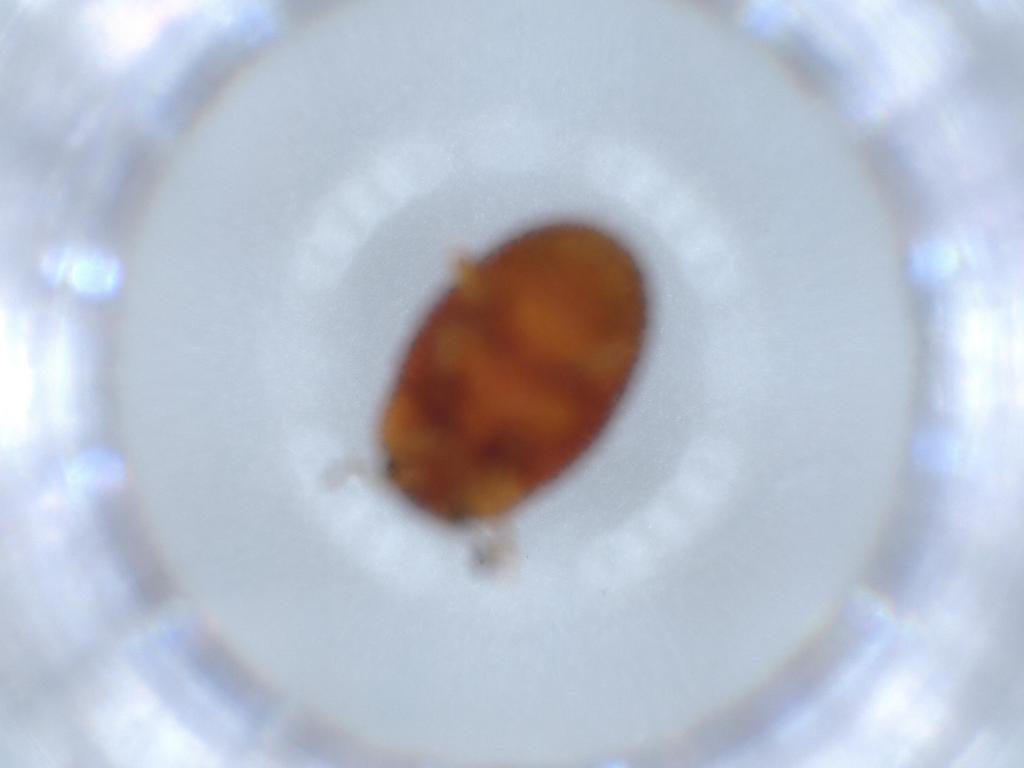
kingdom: Animalia
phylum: Arthropoda
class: Insecta
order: Coleoptera
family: Erotylidae
